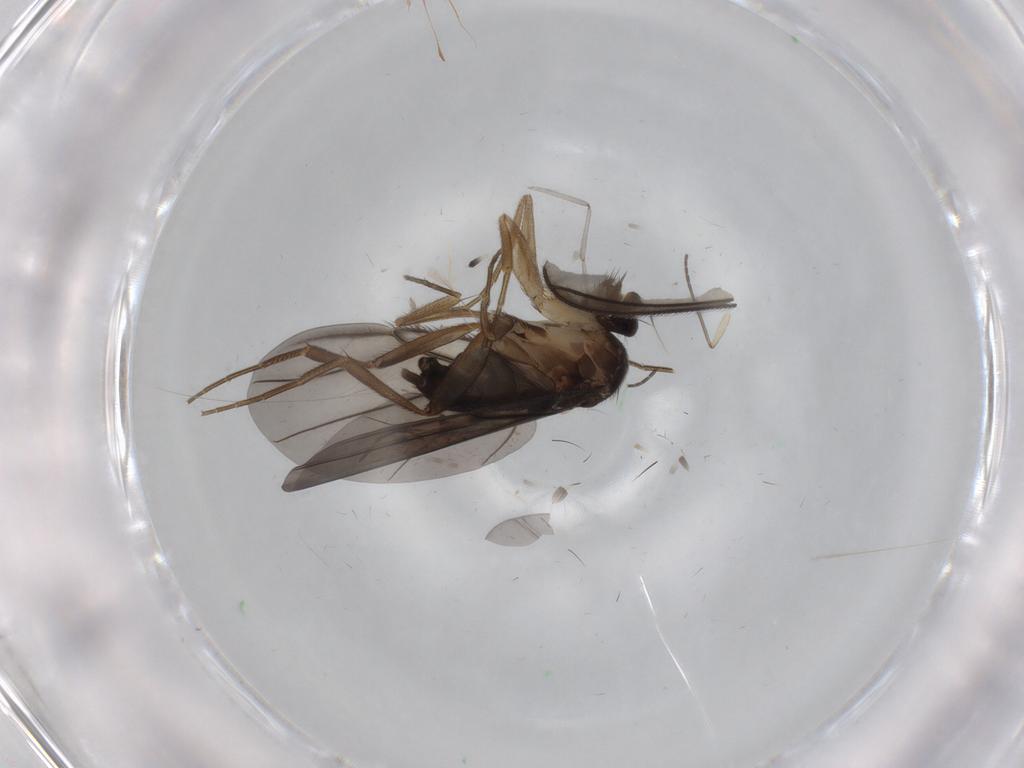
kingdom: Animalia
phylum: Arthropoda
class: Insecta
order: Diptera
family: Phoridae
